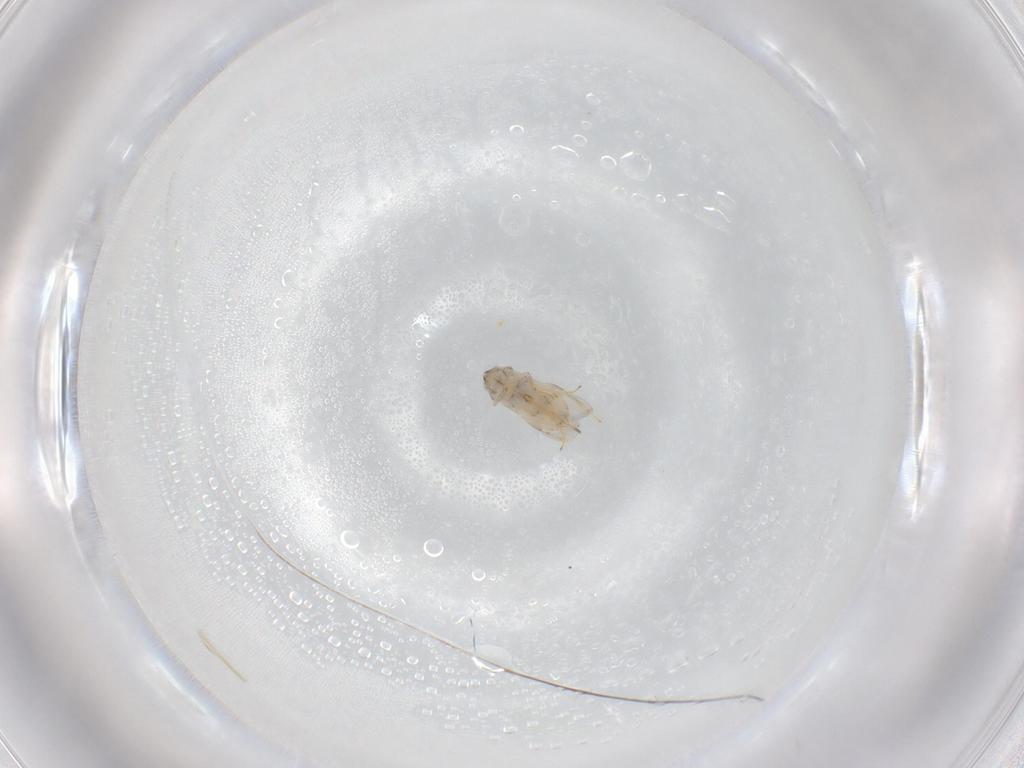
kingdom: Animalia
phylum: Arthropoda
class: Insecta
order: Hymenoptera
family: Encyrtidae
